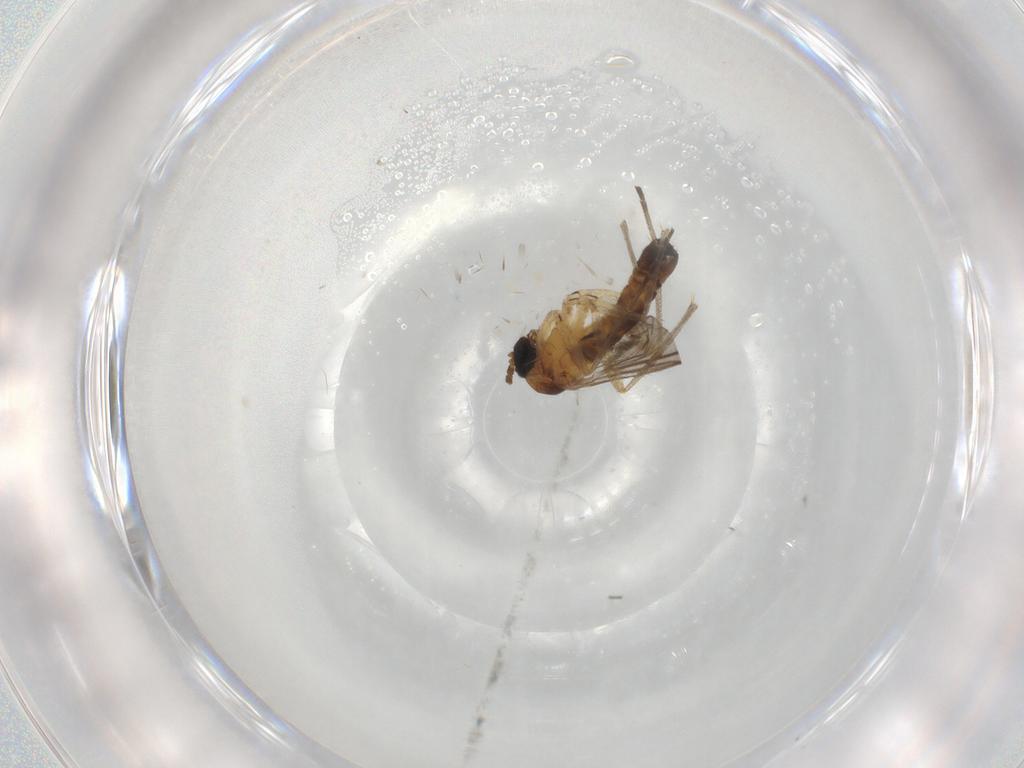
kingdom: Animalia
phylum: Arthropoda
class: Insecta
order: Diptera
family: Sciaridae
